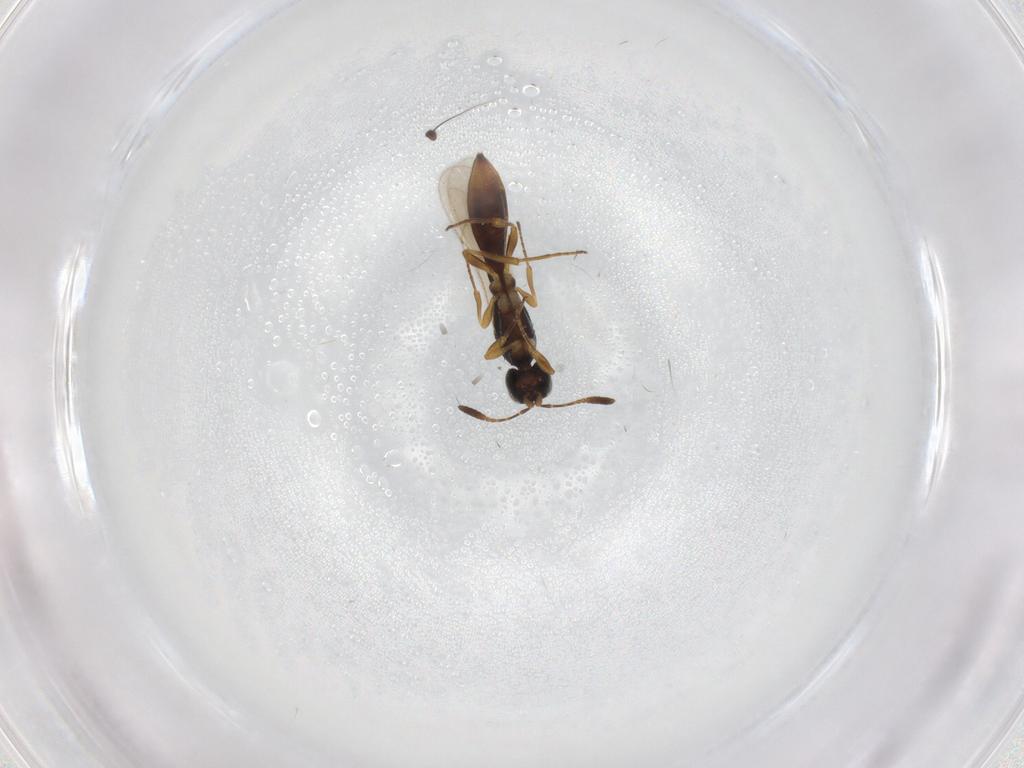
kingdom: Animalia
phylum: Arthropoda
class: Insecta
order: Hymenoptera
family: Scelionidae
